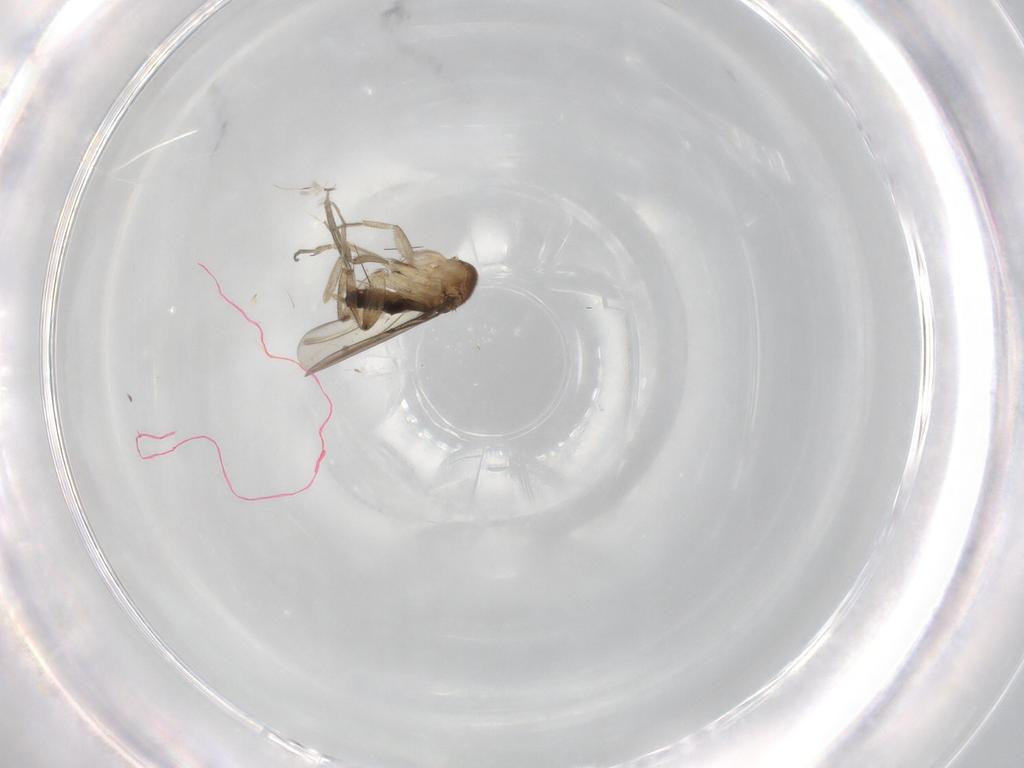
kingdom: Animalia
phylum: Arthropoda
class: Insecta
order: Diptera
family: Phoridae
